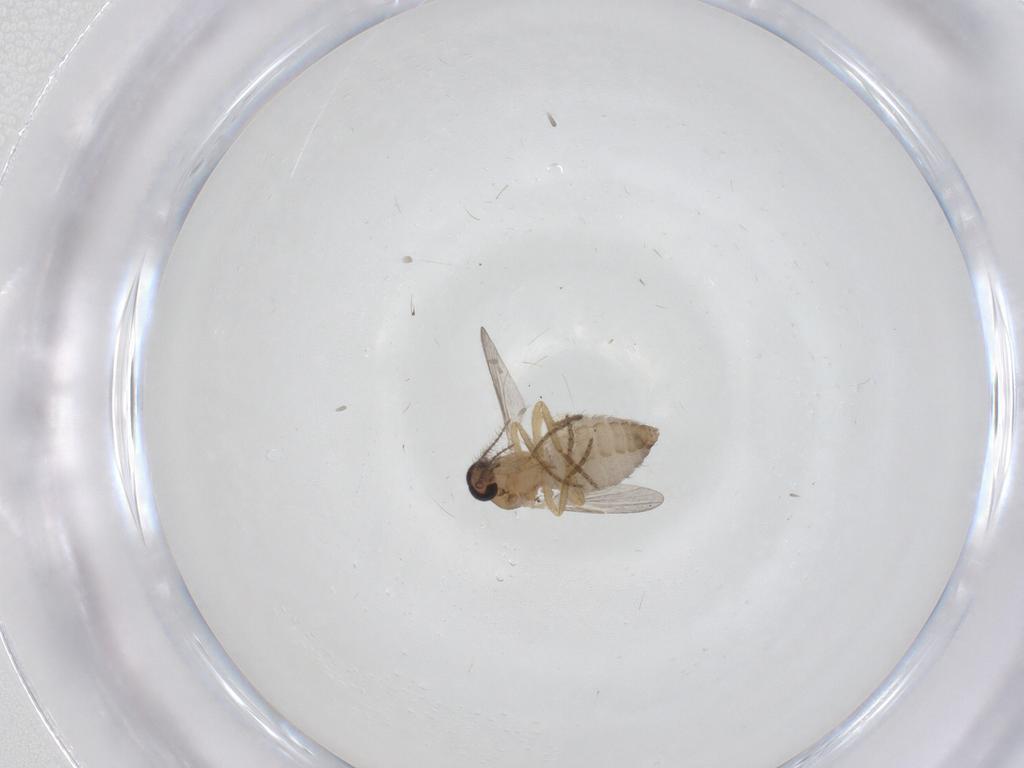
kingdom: Animalia
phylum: Arthropoda
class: Insecta
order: Diptera
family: Ceratopogonidae
